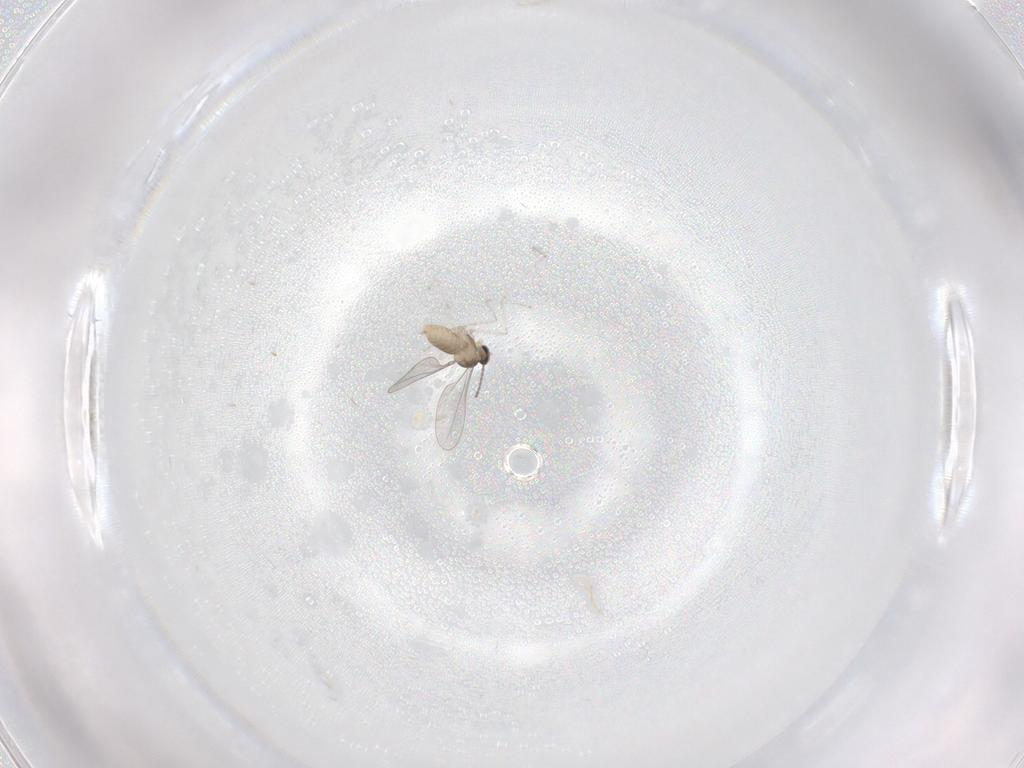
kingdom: Animalia
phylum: Arthropoda
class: Insecta
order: Diptera
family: Cecidomyiidae
